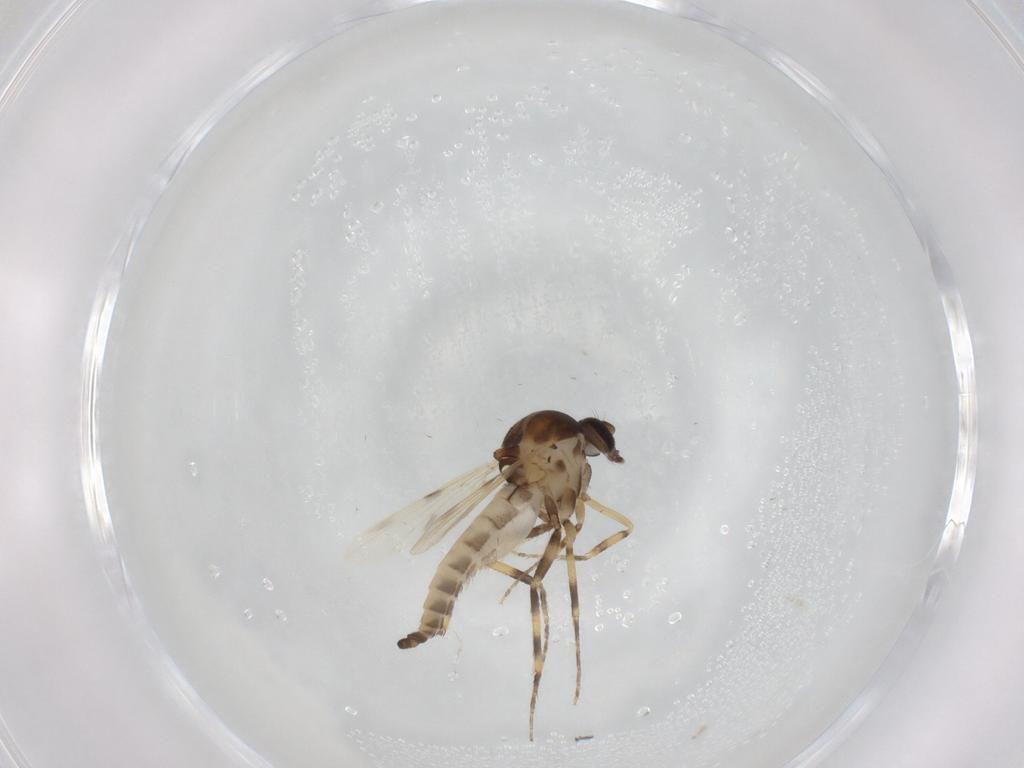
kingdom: Animalia
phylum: Arthropoda
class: Insecta
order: Diptera
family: Ceratopogonidae
